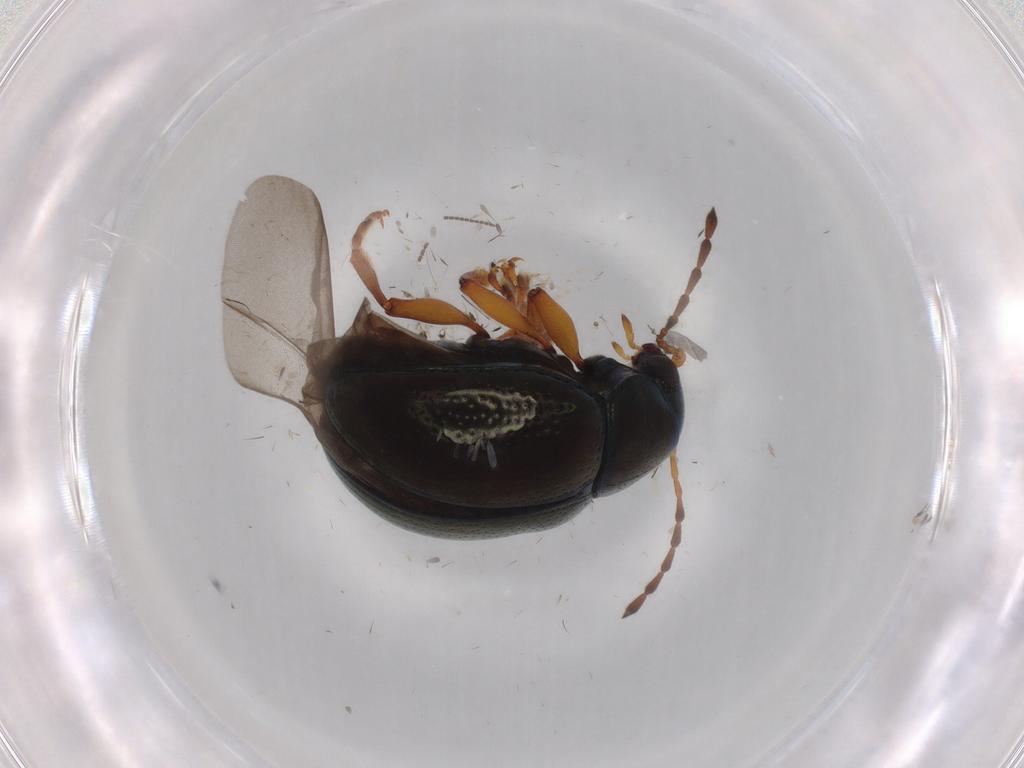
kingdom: Animalia
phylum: Arthropoda
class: Insecta
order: Coleoptera
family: Chrysomelidae
